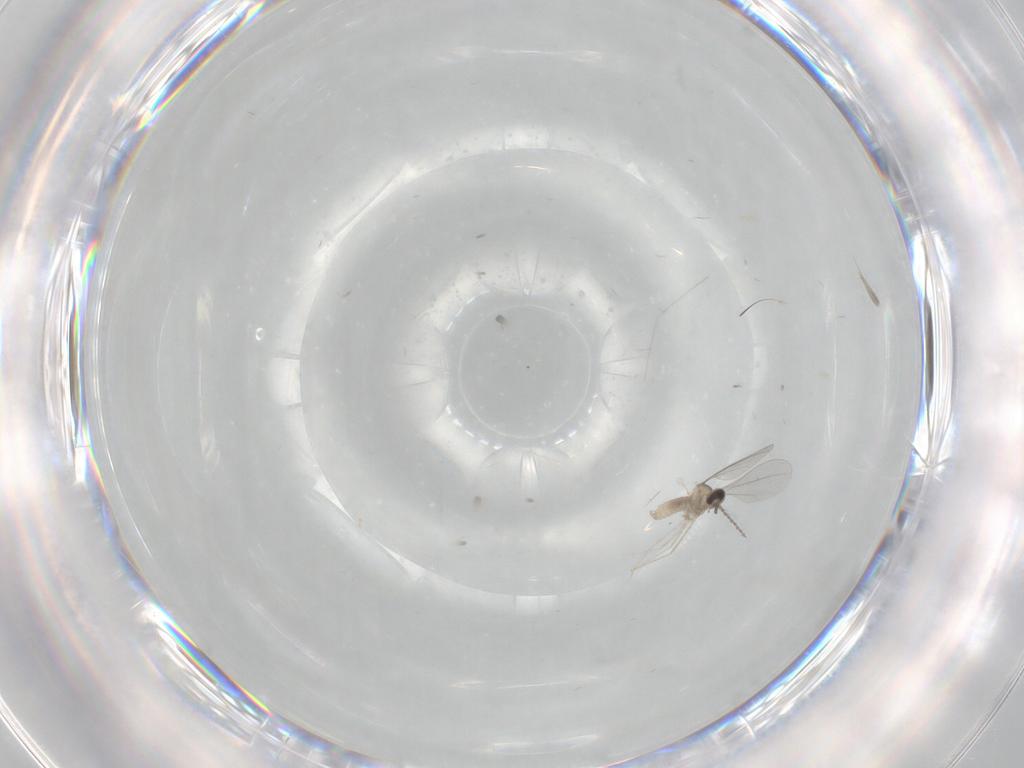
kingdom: Animalia
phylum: Arthropoda
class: Insecta
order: Diptera
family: Cecidomyiidae
